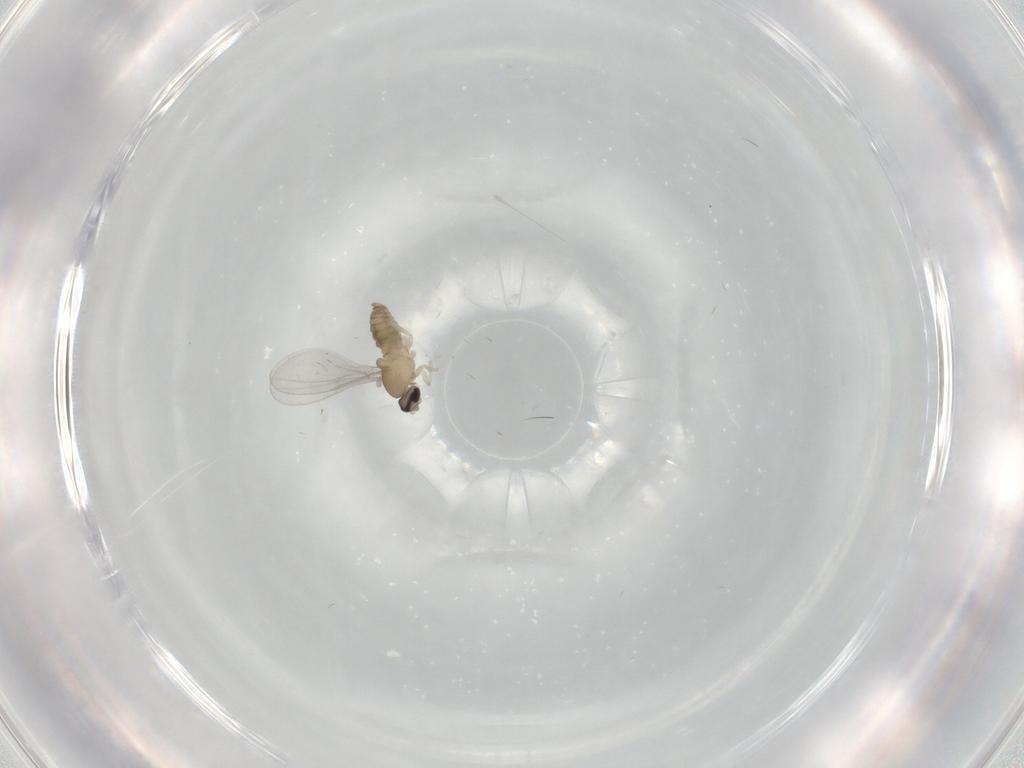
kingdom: Animalia
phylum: Arthropoda
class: Insecta
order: Diptera
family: Cecidomyiidae
